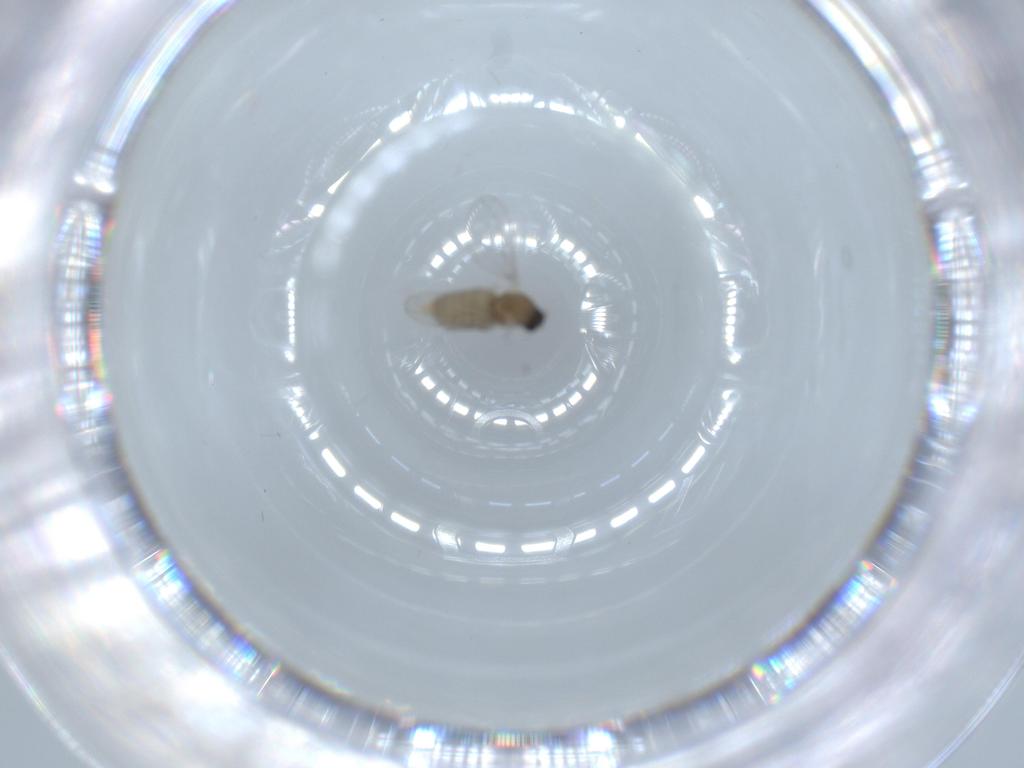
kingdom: Animalia
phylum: Arthropoda
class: Insecta
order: Diptera
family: Cecidomyiidae
